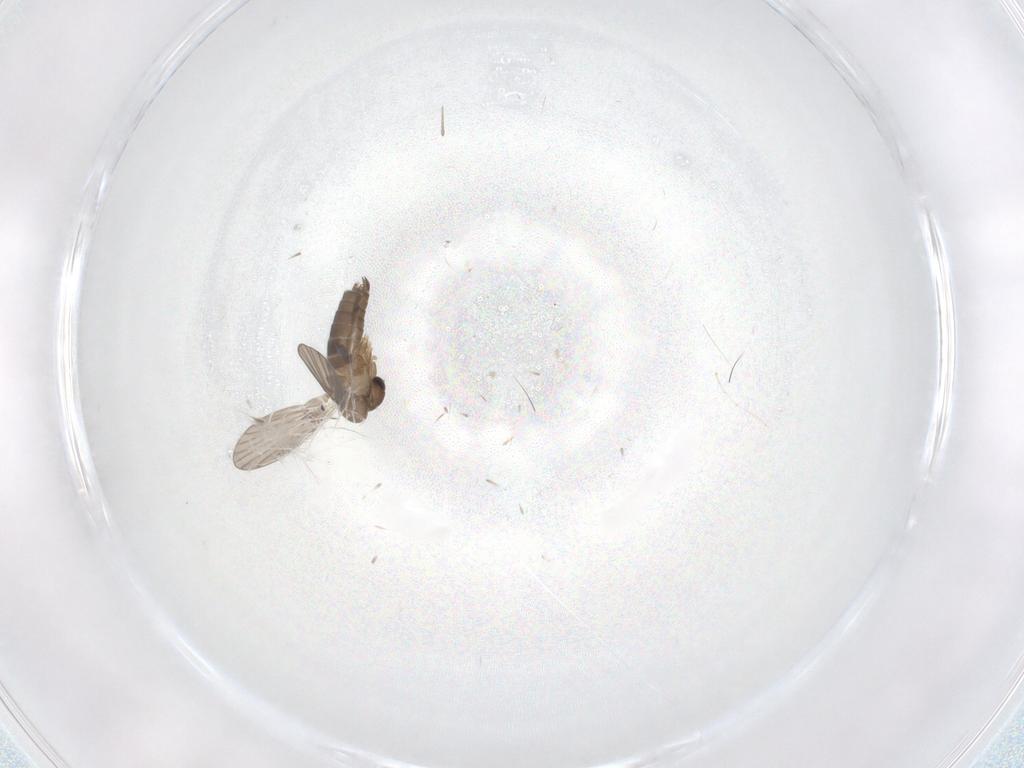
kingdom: Animalia
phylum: Arthropoda
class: Insecta
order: Diptera
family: Psychodidae
